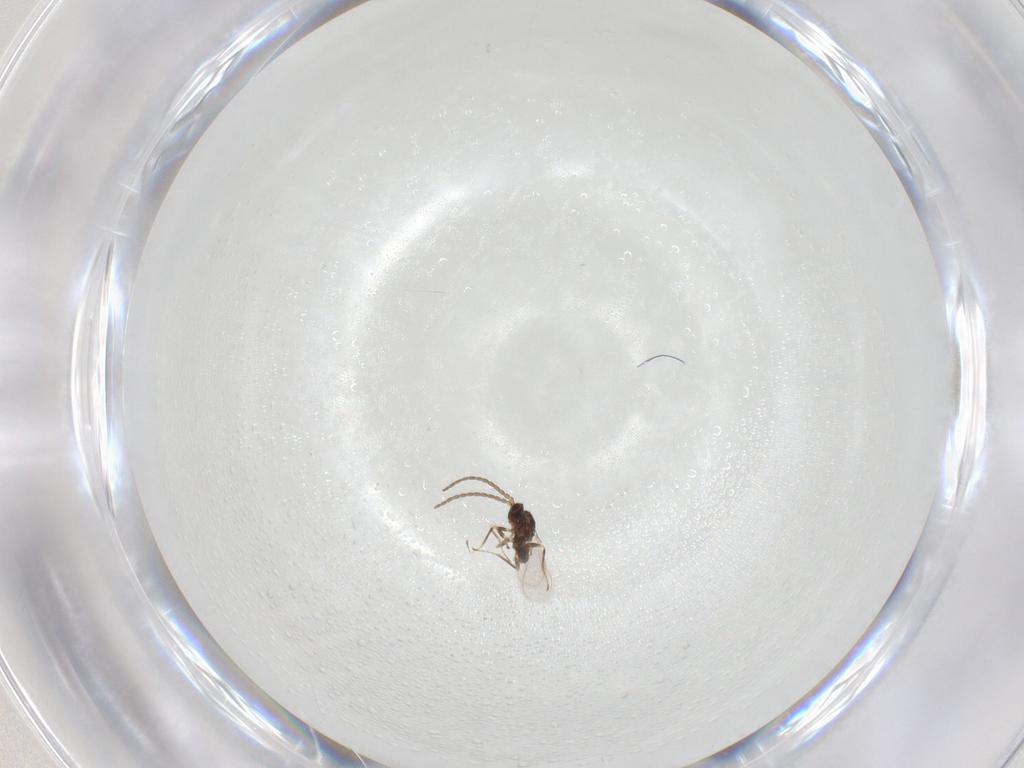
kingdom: Animalia
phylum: Arthropoda
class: Insecta
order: Hymenoptera
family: Mymaridae
